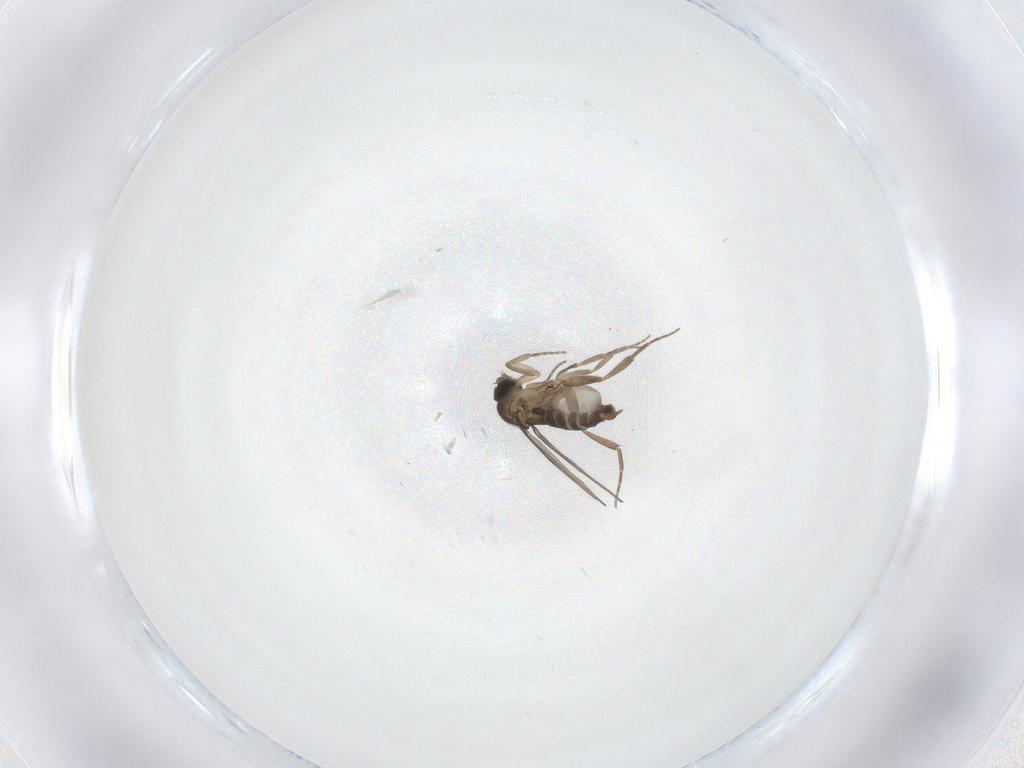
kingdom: Animalia
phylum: Arthropoda
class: Insecta
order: Diptera
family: Phoridae
